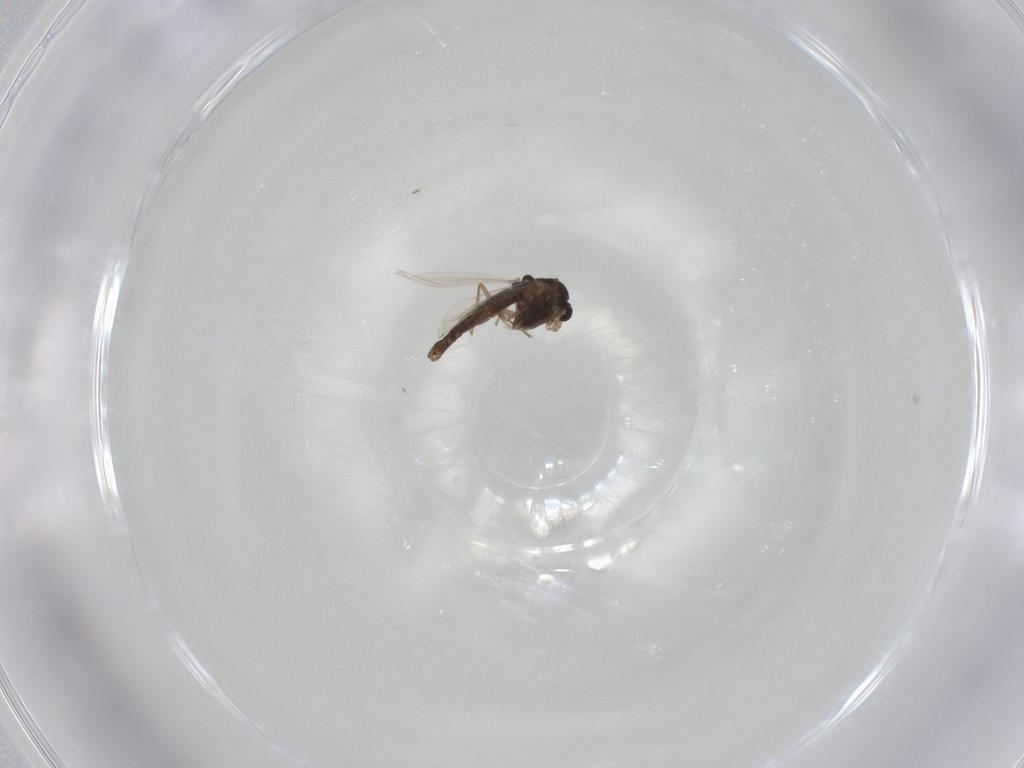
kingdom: Animalia
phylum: Arthropoda
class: Insecta
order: Diptera
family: Chironomidae
